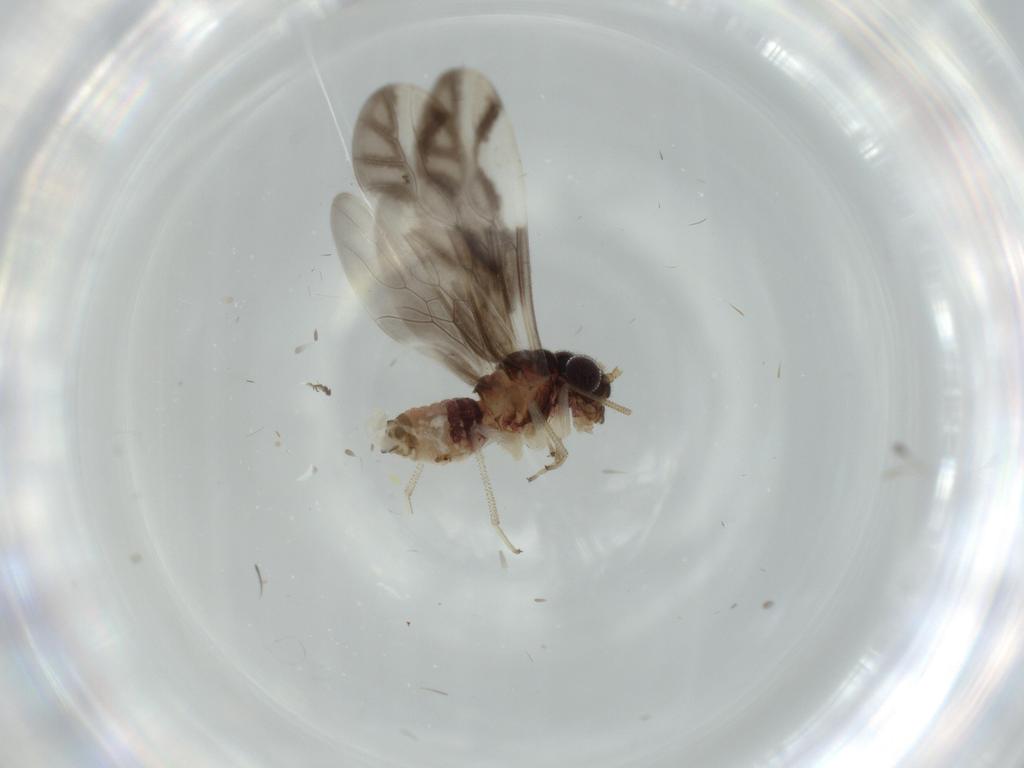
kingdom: Animalia
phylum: Arthropoda
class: Insecta
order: Psocodea
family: Caeciliusidae
